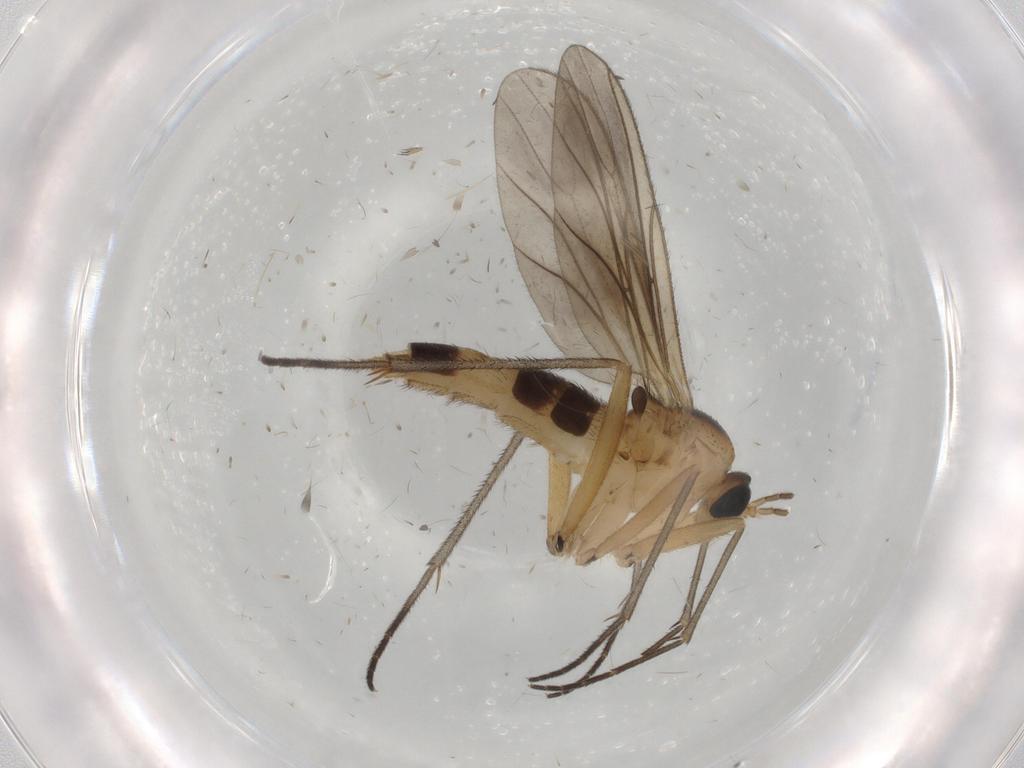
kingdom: Animalia
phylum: Arthropoda
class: Insecta
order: Diptera
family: Sciaridae
